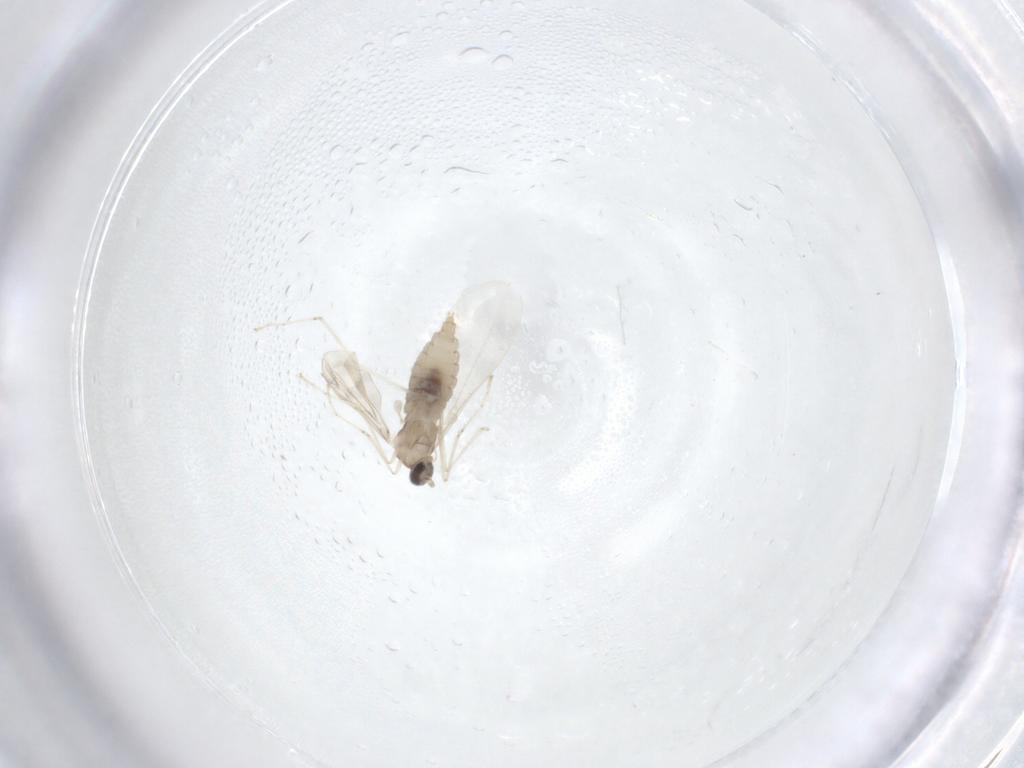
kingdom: Animalia
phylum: Arthropoda
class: Insecta
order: Diptera
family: Cecidomyiidae
